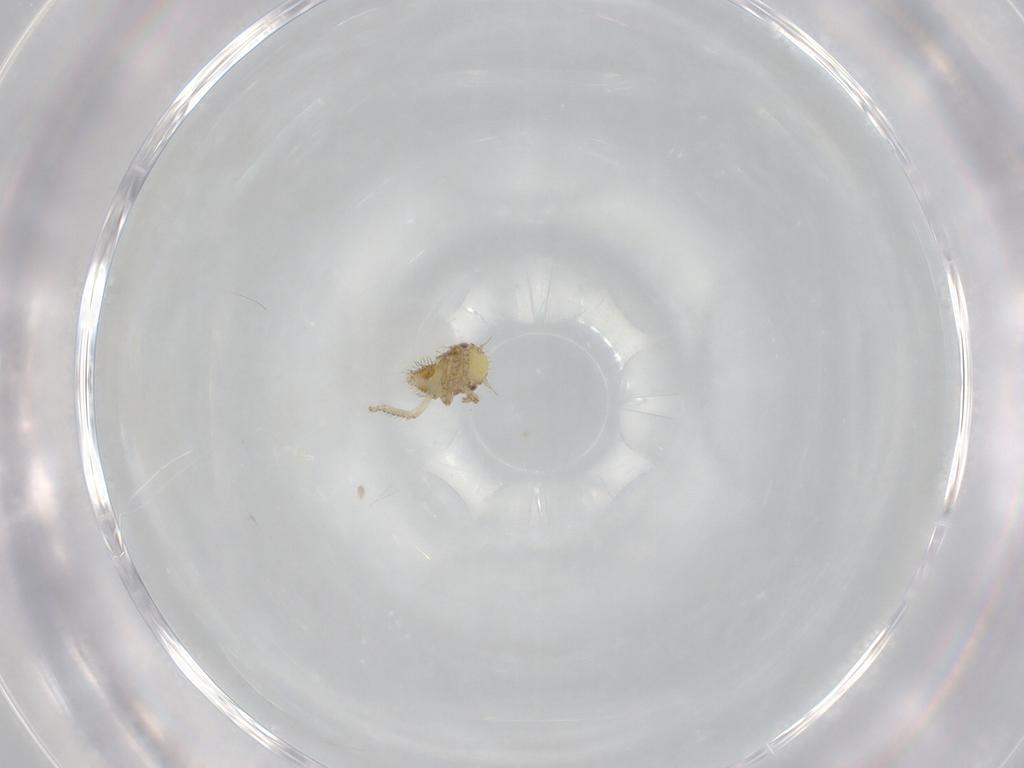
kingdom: Animalia
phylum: Arthropoda
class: Insecta
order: Hemiptera
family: Cicadellidae
